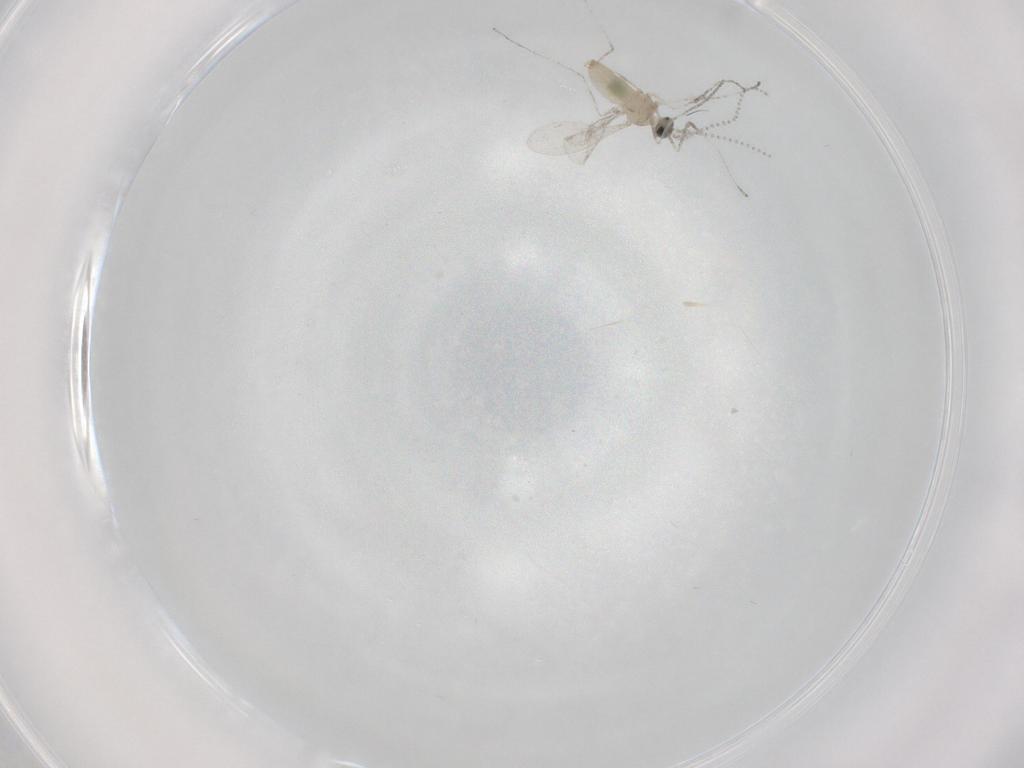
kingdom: Animalia
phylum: Arthropoda
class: Insecta
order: Diptera
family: Cecidomyiidae
